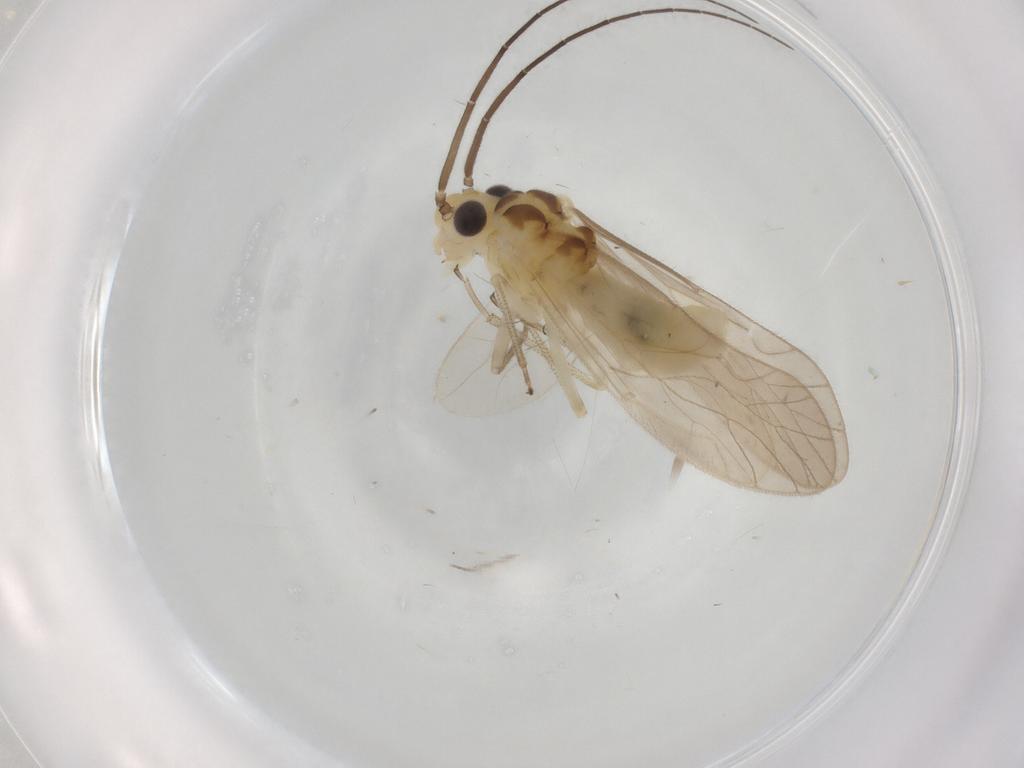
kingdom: Animalia
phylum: Arthropoda
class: Insecta
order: Psocodea
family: Caeciliusidae
